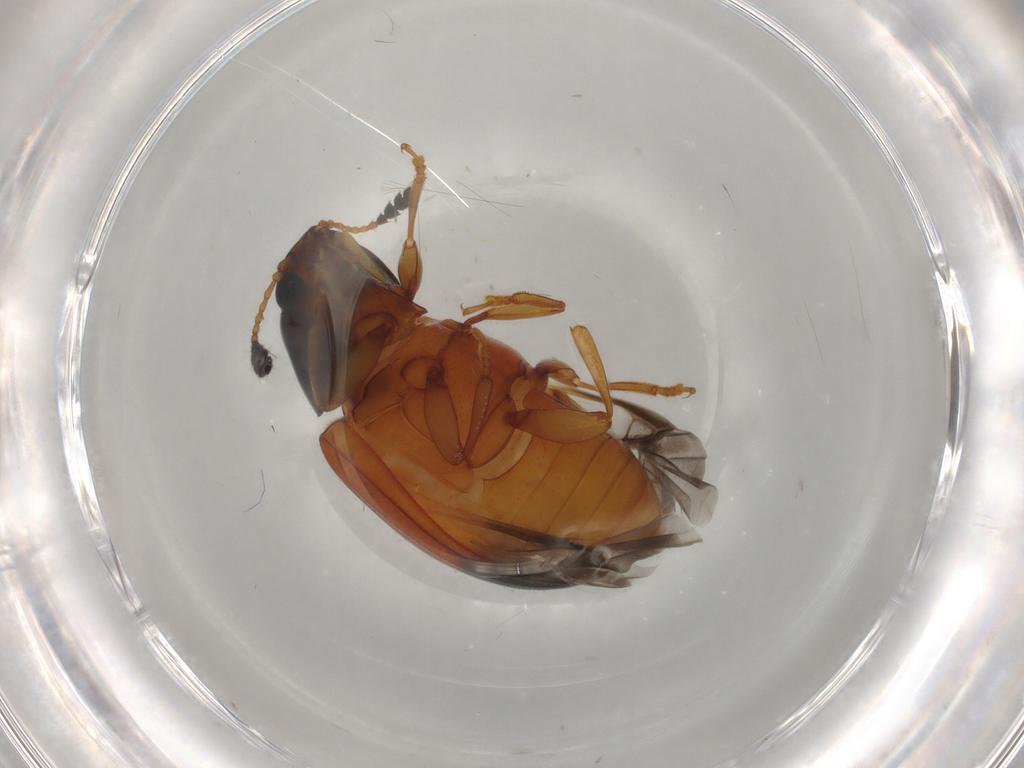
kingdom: Animalia
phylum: Arthropoda
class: Insecta
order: Coleoptera
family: Erotylidae
